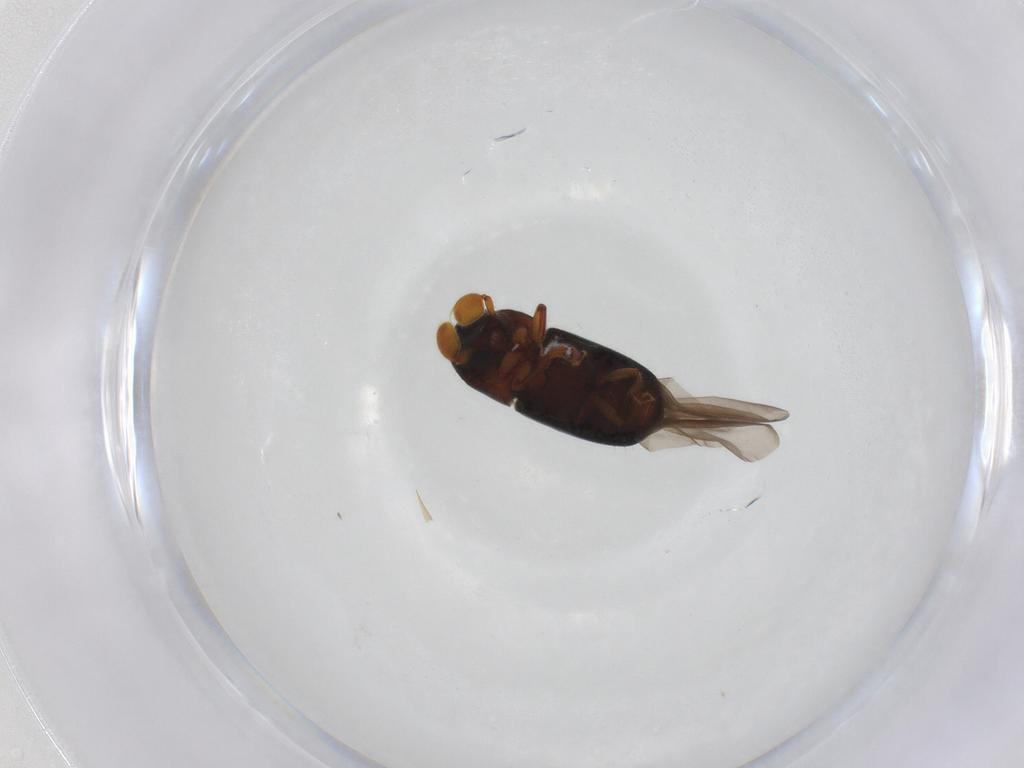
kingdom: Animalia
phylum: Arthropoda
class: Insecta
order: Coleoptera
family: Curculionidae
